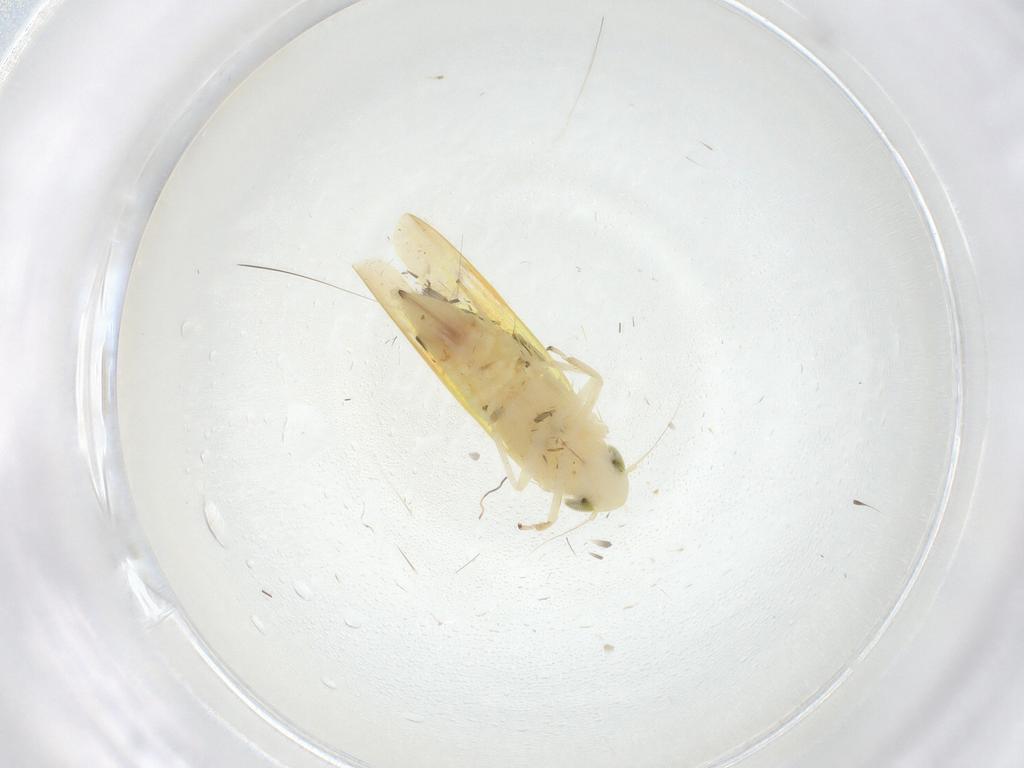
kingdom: Animalia
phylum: Arthropoda
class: Insecta
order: Hemiptera
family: Cicadellidae
